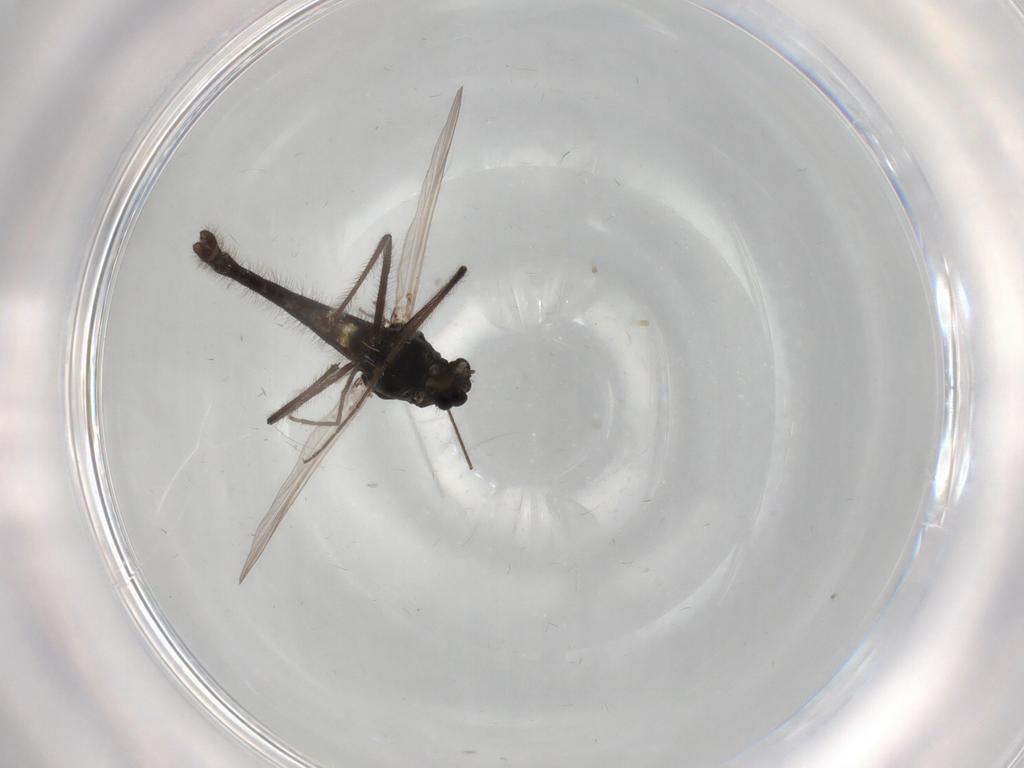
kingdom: Animalia
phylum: Arthropoda
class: Insecta
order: Diptera
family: Chironomidae
